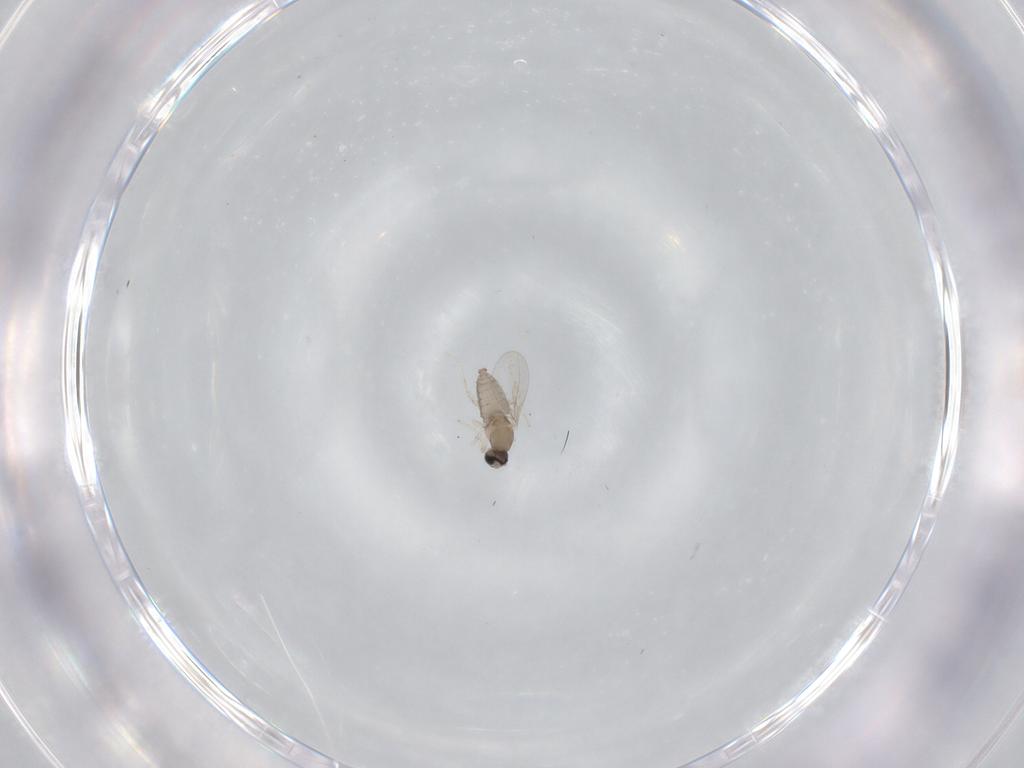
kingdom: Animalia
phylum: Arthropoda
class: Insecta
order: Diptera
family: Cecidomyiidae
